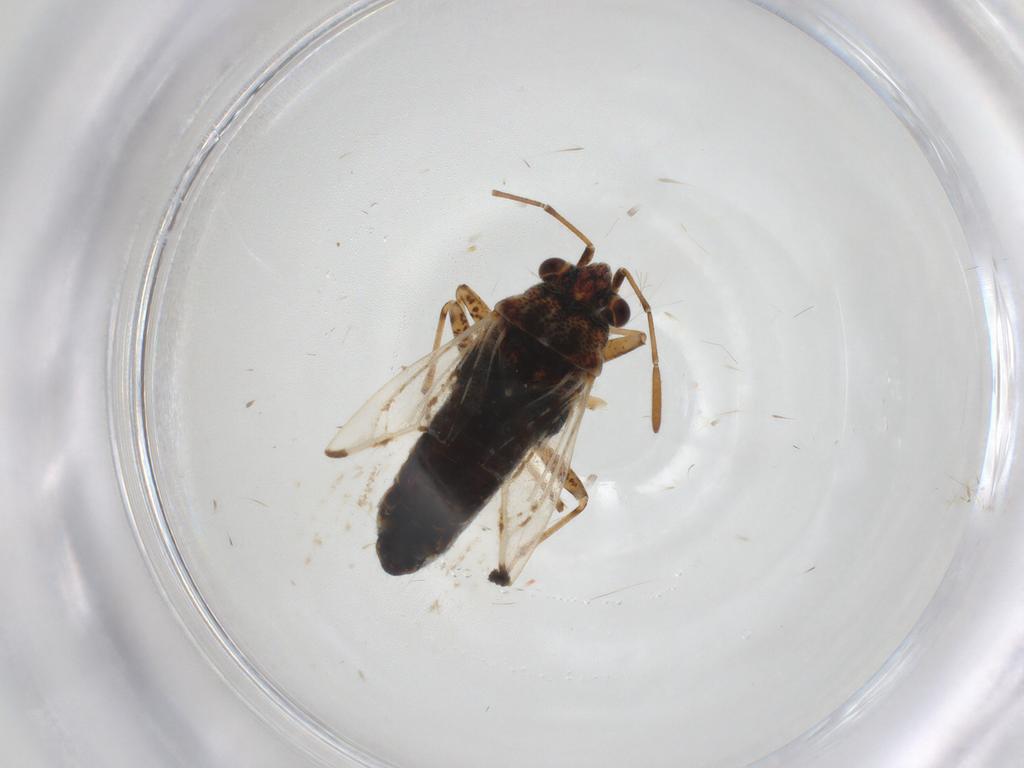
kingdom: Animalia
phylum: Arthropoda
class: Insecta
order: Hemiptera
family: Lygaeidae
